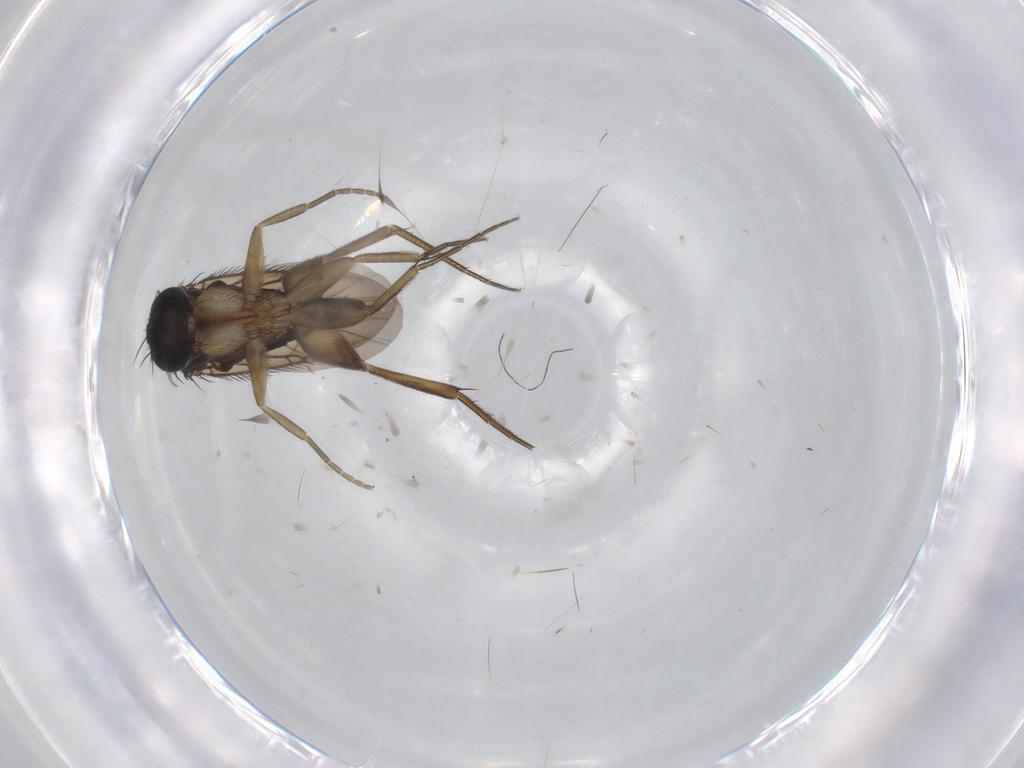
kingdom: Animalia
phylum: Arthropoda
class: Insecta
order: Diptera
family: Phoridae
